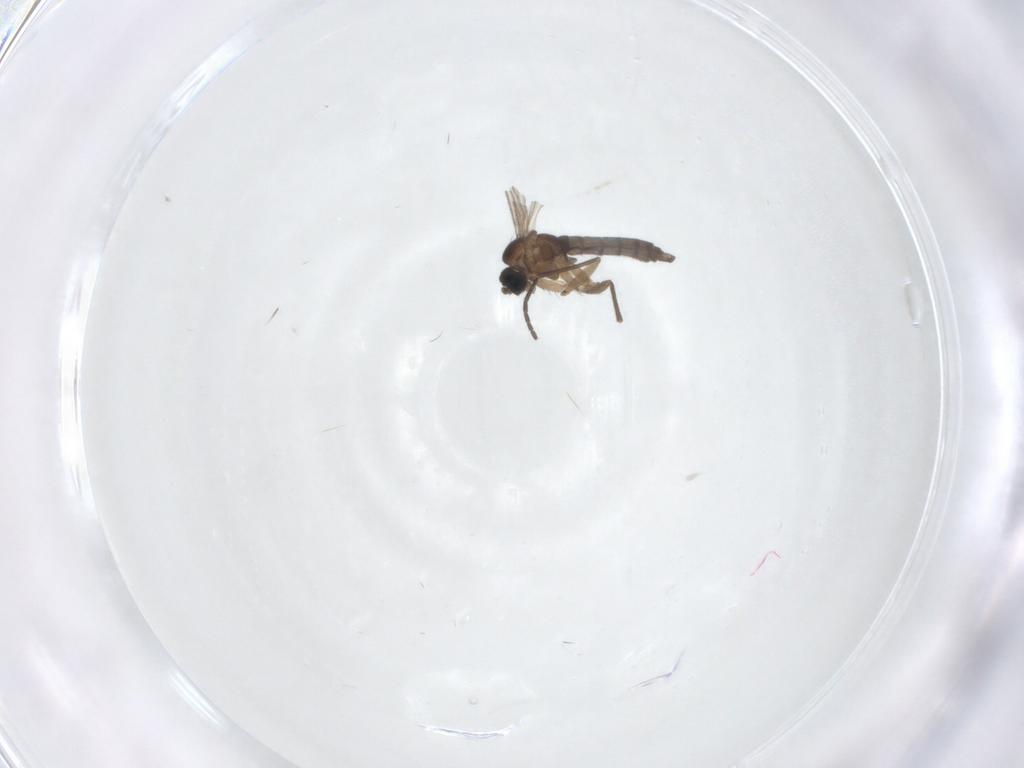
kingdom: Animalia
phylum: Arthropoda
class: Insecta
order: Diptera
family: Sciaridae
